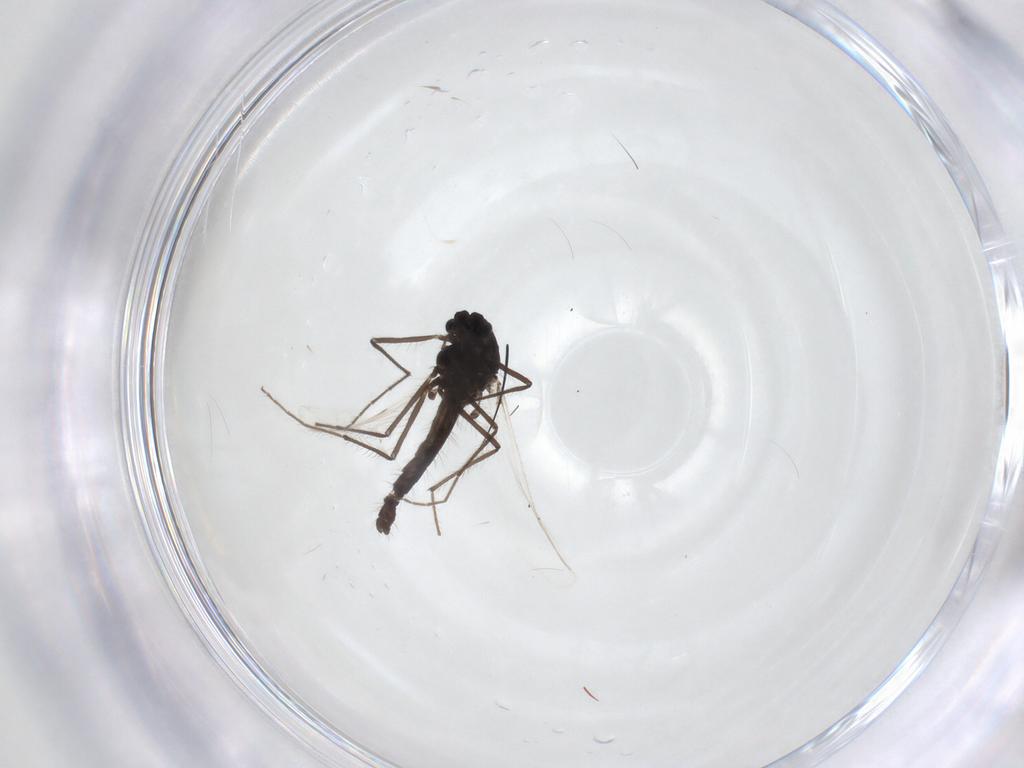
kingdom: Animalia
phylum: Arthropoda
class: Insecta
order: Diptera
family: Chironomidae
